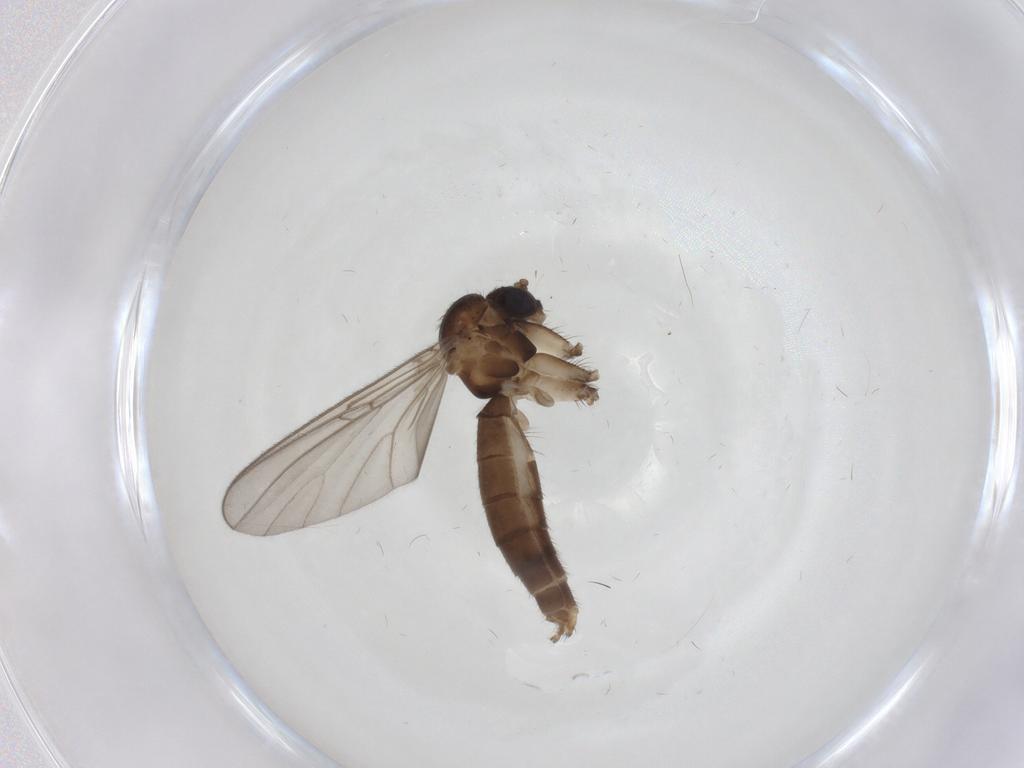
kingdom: Animalia
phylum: Arthropoda
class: Insecta
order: Diptera
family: Mycetophilidae
